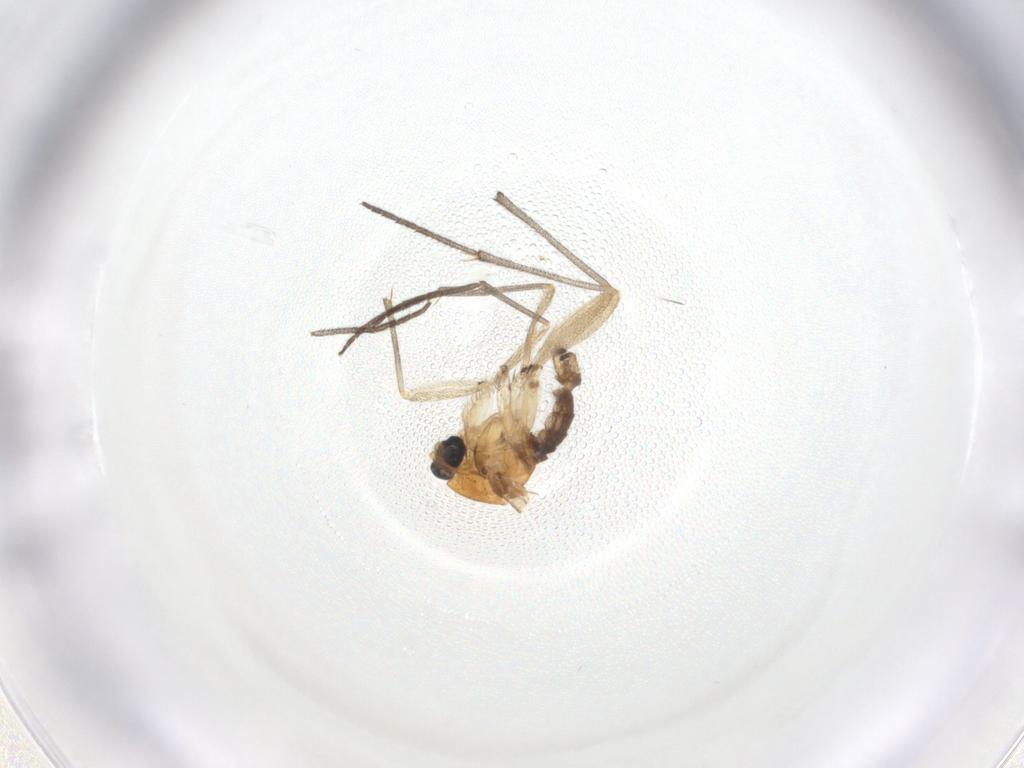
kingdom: Animalia
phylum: Arthropoda
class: Insecta
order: Diptera
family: Sciaridae
